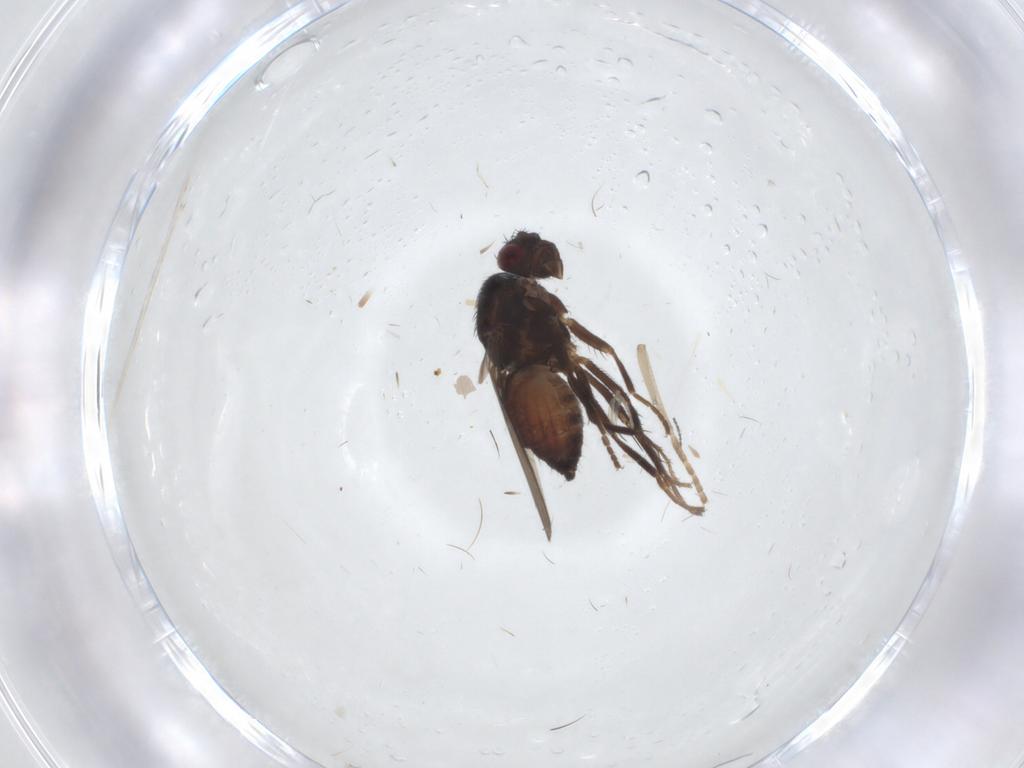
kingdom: Animalia
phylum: Arthropoda
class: Insecta
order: Diptera
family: Psychodidae
